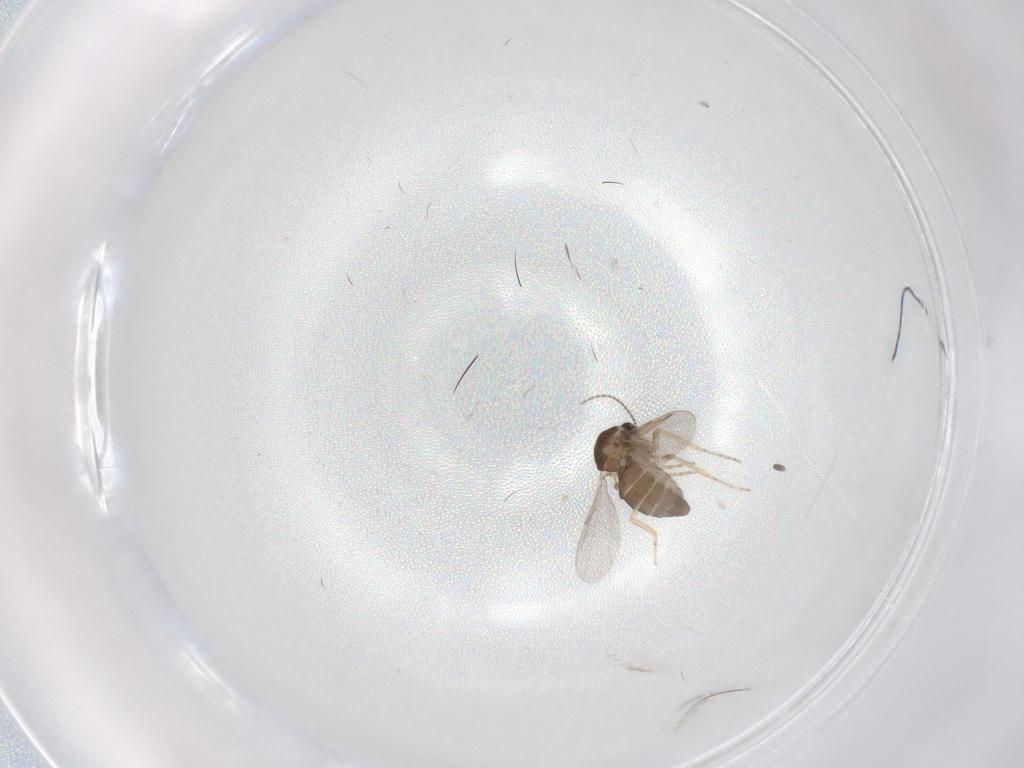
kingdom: Animalia
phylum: Arthropoda
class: Insecta
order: Diptera
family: Ceratopogonidae
